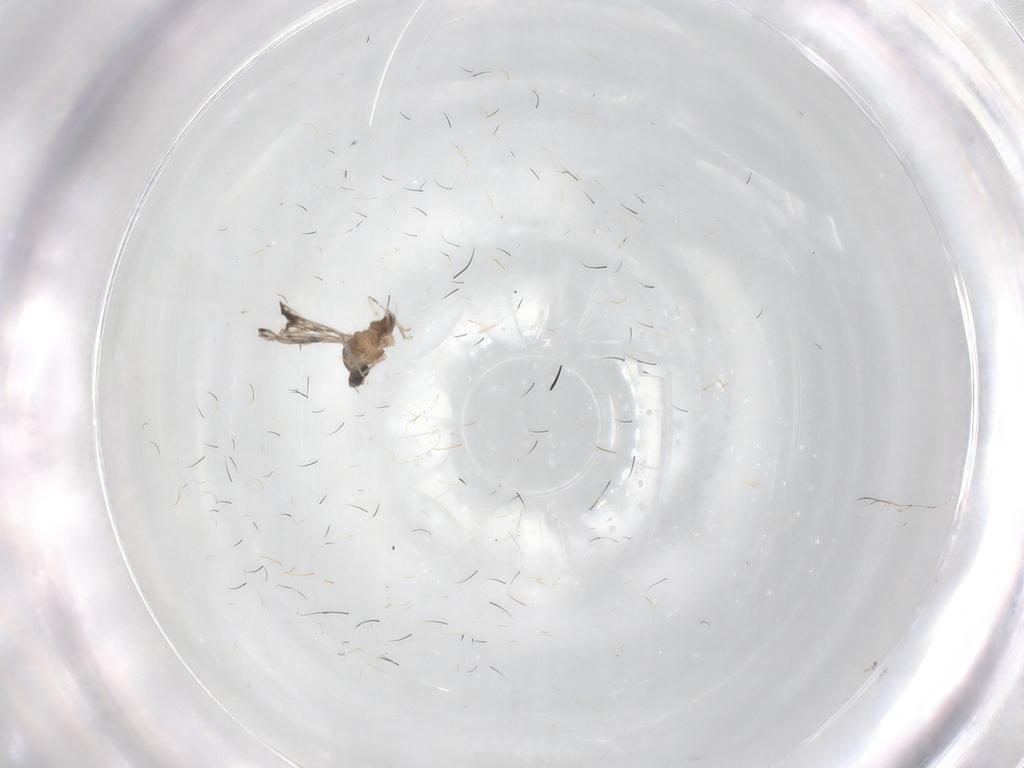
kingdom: Animalia
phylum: Arthropoda
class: Insecta
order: Diptera
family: Cecidomyiidae
